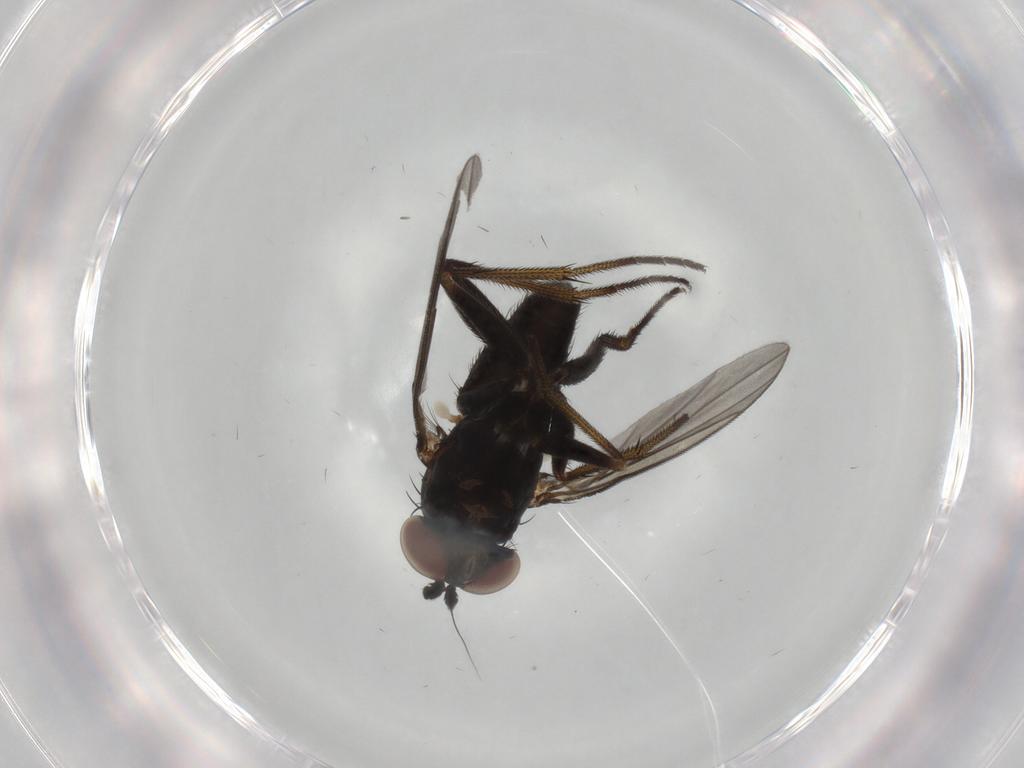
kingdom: Animalia
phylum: Arthropoda
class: Insecta
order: Diptera
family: Dolichopodidae
